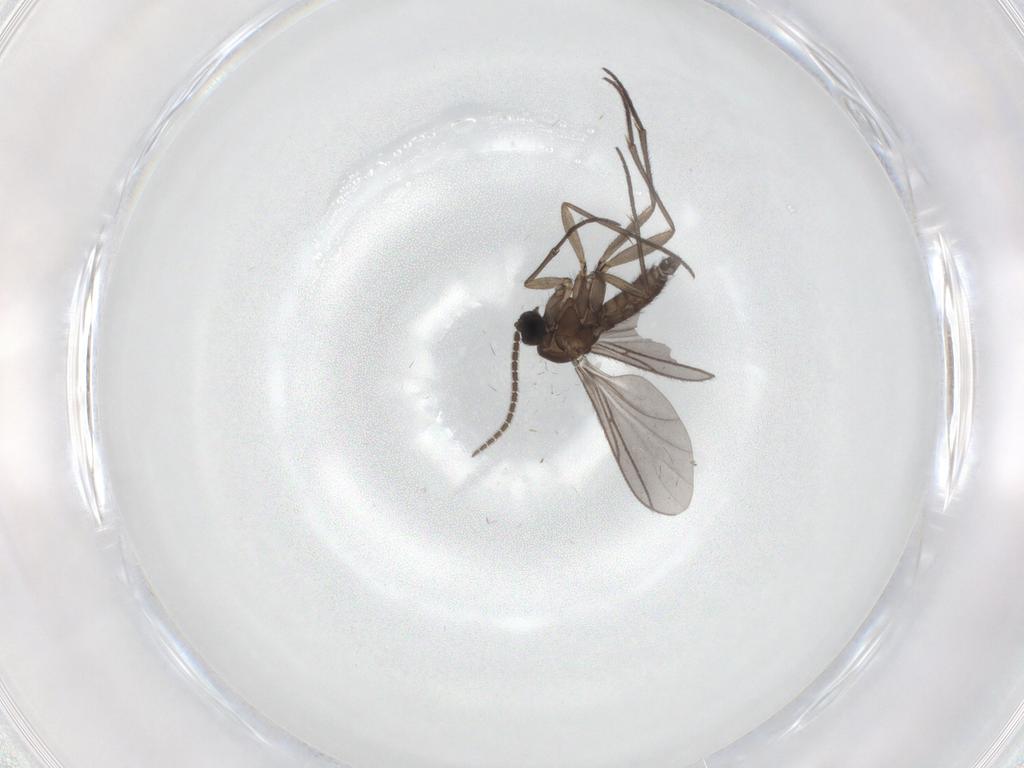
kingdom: Animalia
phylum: Arthropoda
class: Insecta
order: Diptera
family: Sciaridae
